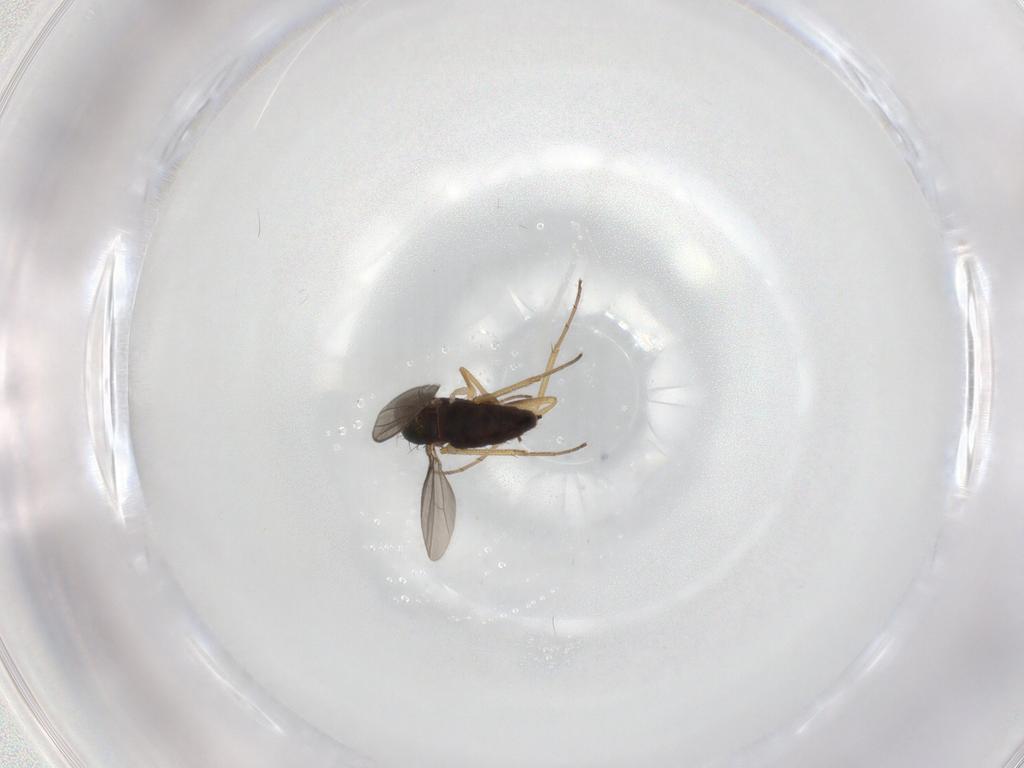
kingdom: Animalia
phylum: Arthropoda
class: Insecta
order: Diptera
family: Dolichopodidae
